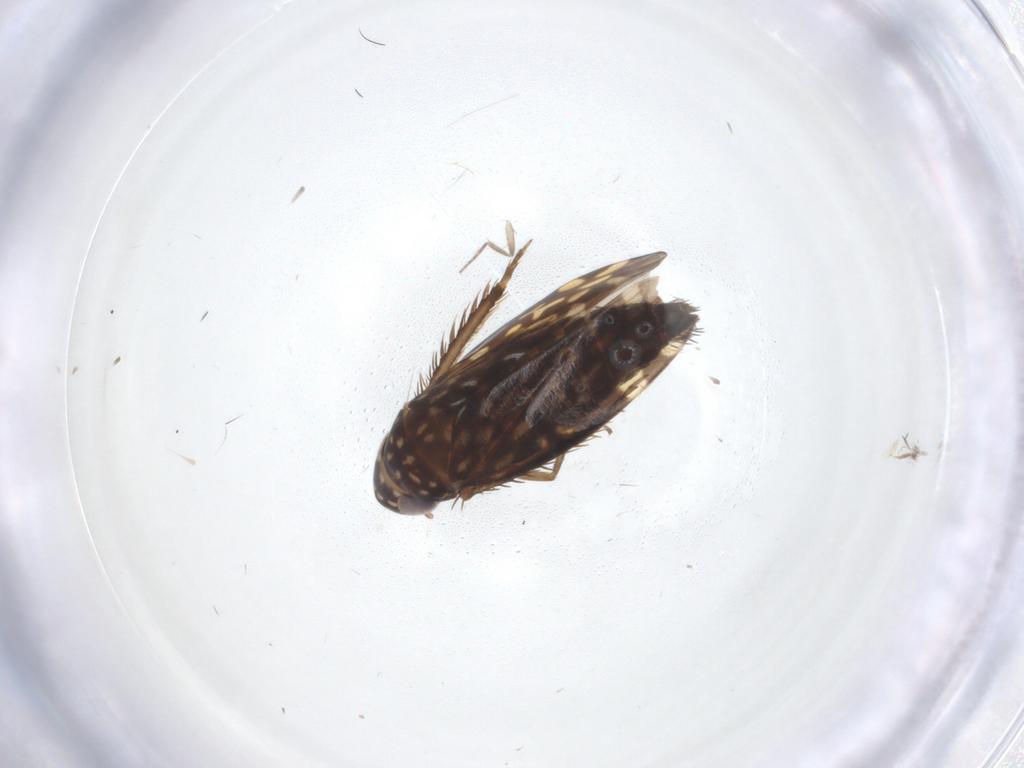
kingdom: Animalia
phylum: Arthropoda
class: Insecta
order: Hemiptera
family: Cicadellidae
